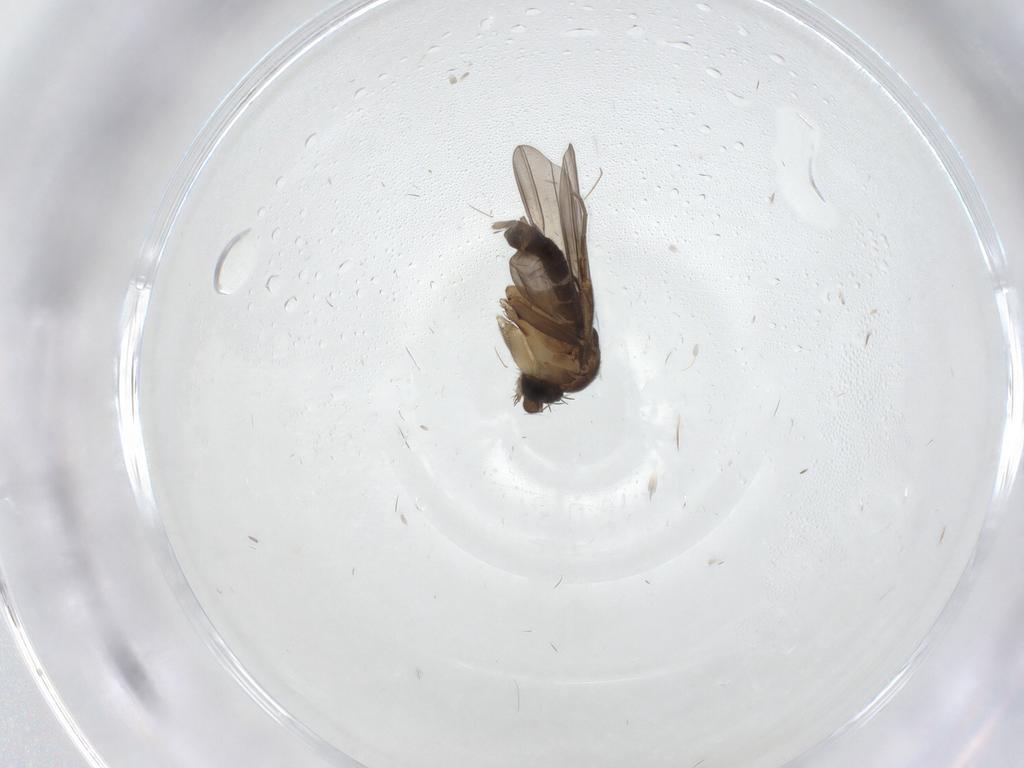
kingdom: Animalia
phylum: Arthropoda
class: Insecta
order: Diptera
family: Phoridae
